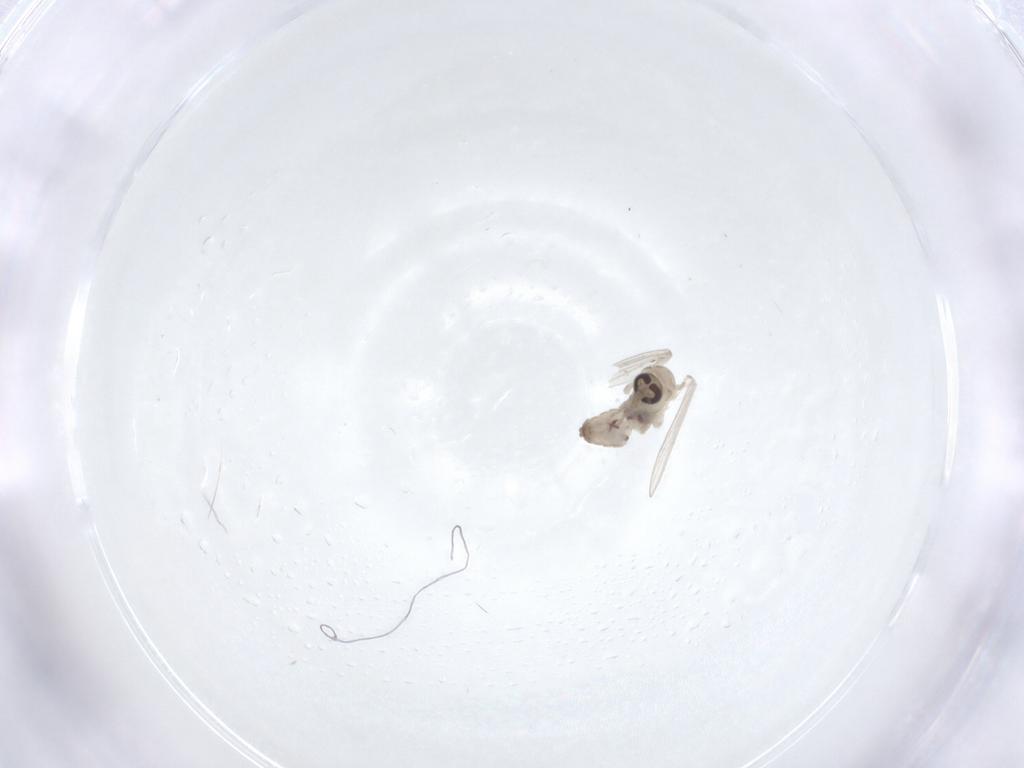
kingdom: Animalia
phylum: Arthropoda
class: Insecta
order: Diptera
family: Psychodidae
